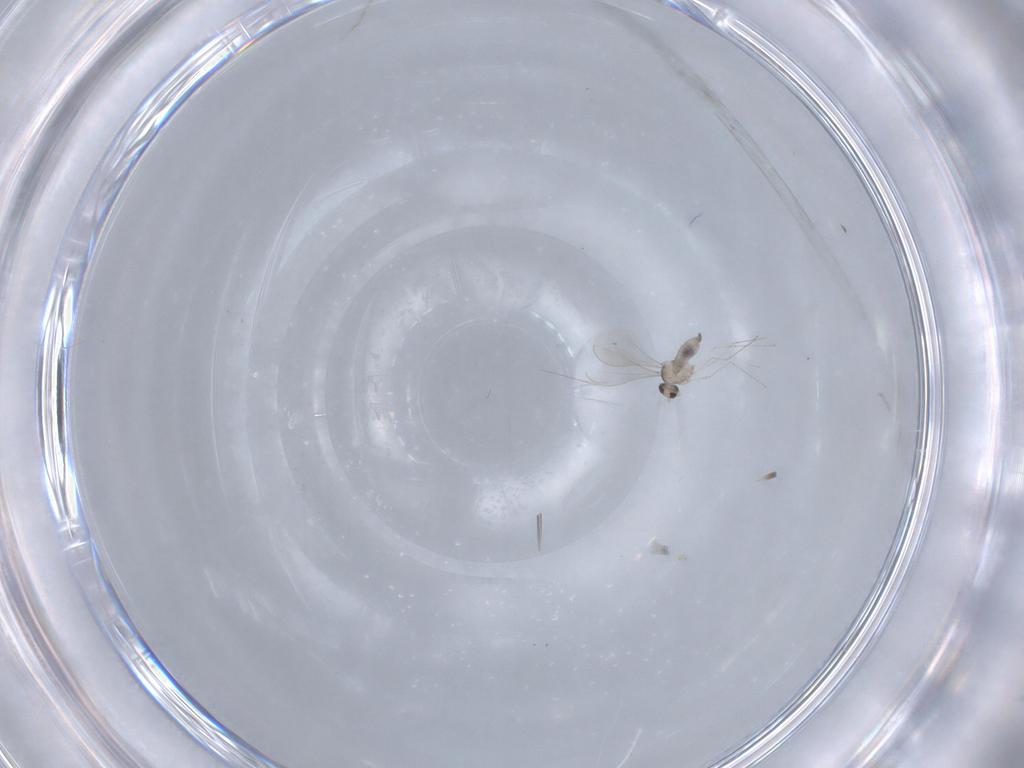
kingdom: Animalia
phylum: Arthropoda
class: Insecta
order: Diptera
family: Cecidomyiidae
